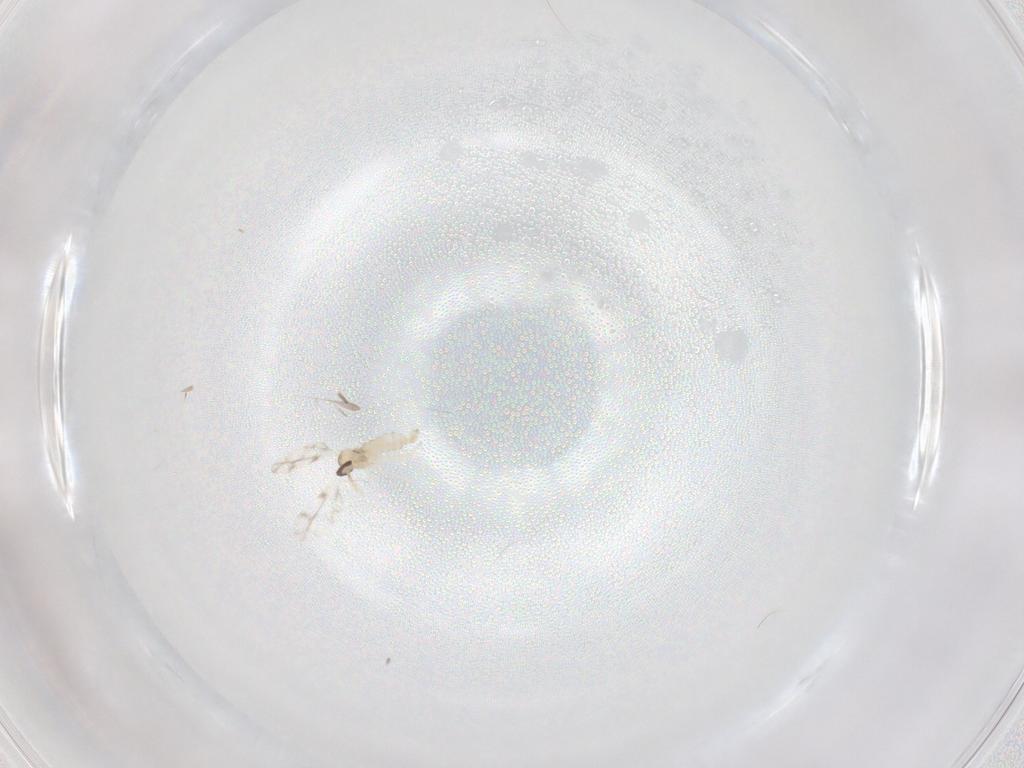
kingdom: Animalia
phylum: Arthropoda
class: Insecta
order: Diptera
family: Cecidomyiidae
